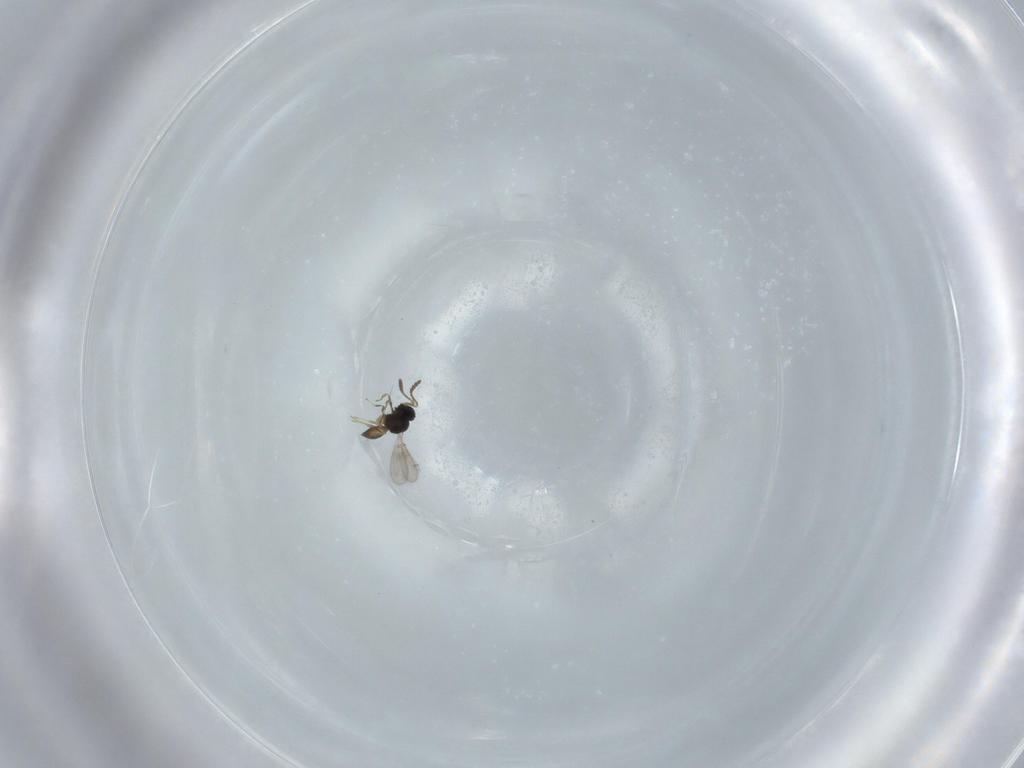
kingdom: Animalia
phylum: Arthropoda
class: Insecta
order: Hymenoptera
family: Scelionidae
